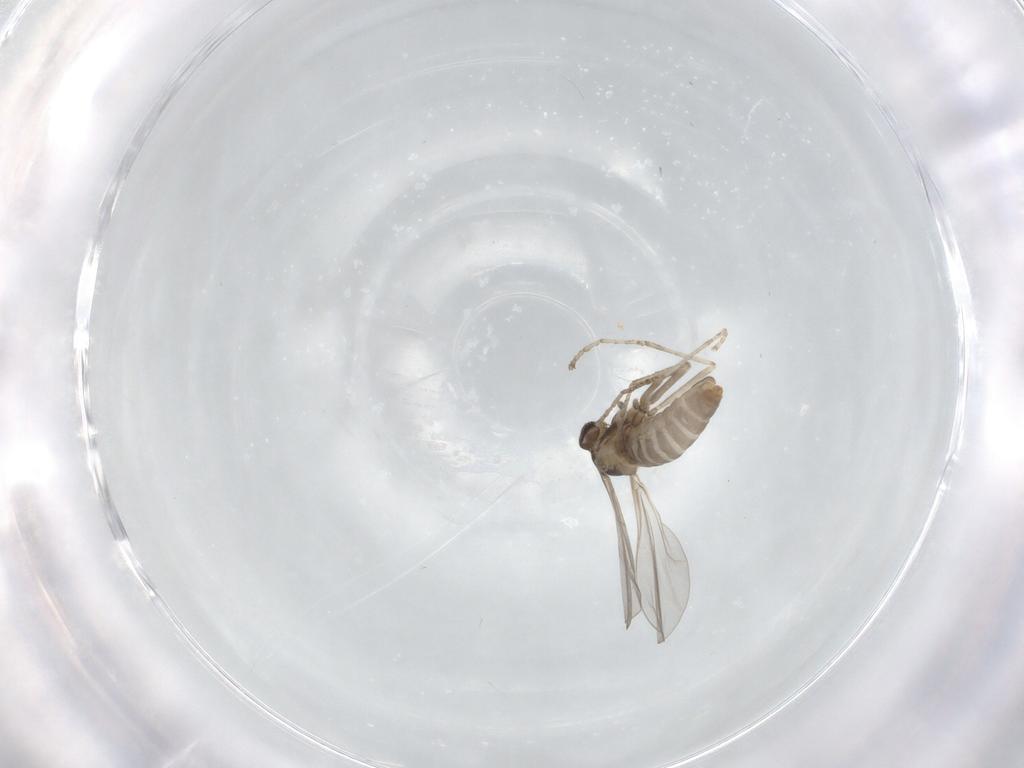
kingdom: Animalia
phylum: Arthropoda
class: Insecta
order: Diptera
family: Cecidomyiidae
